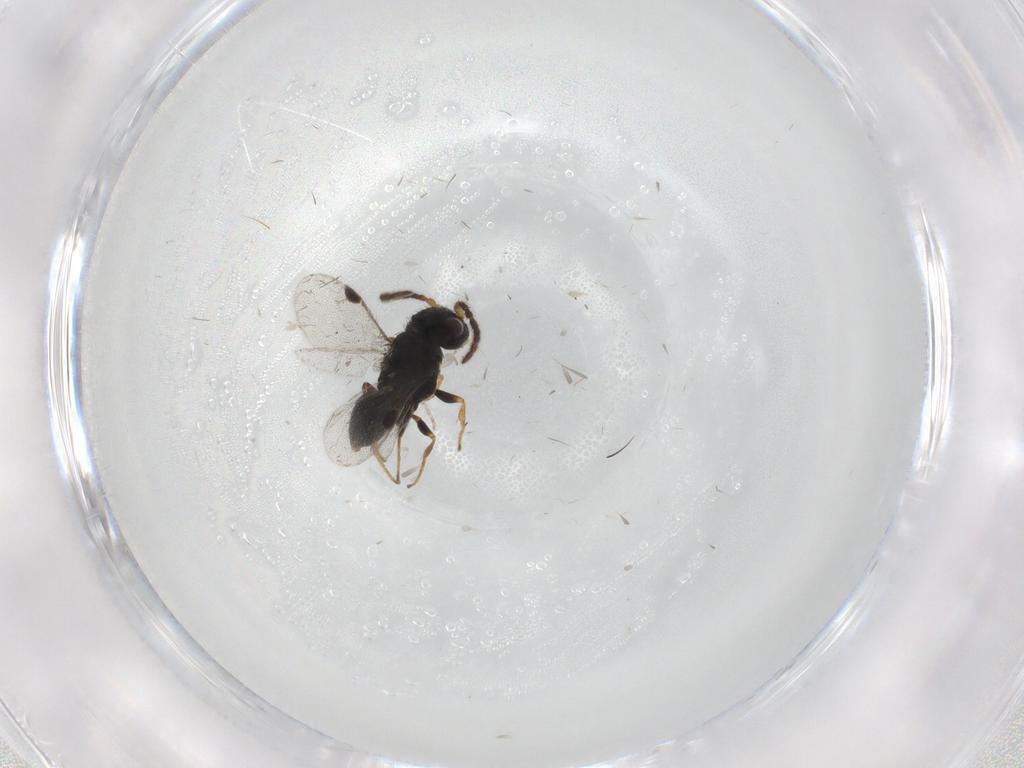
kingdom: Animalia
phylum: Arthropoda
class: Insecta
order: Hymenoptera
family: Dryinidae
